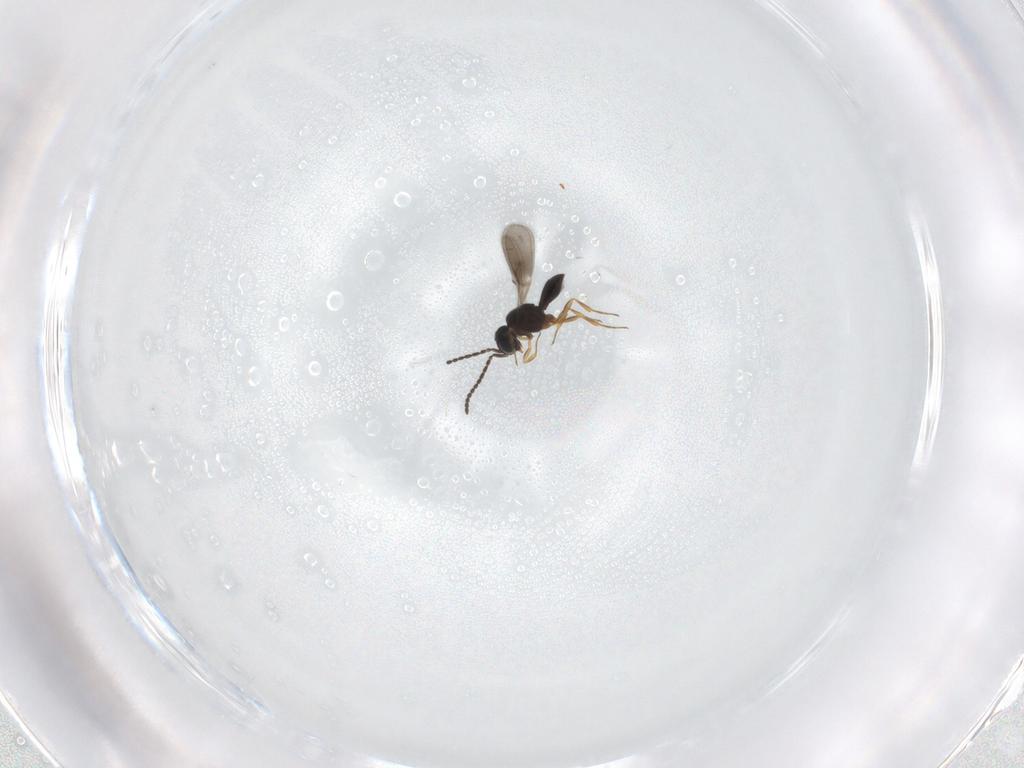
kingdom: Animalia
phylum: Arthropoda
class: Insecta
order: Hymenoptera
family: Scelionidae
